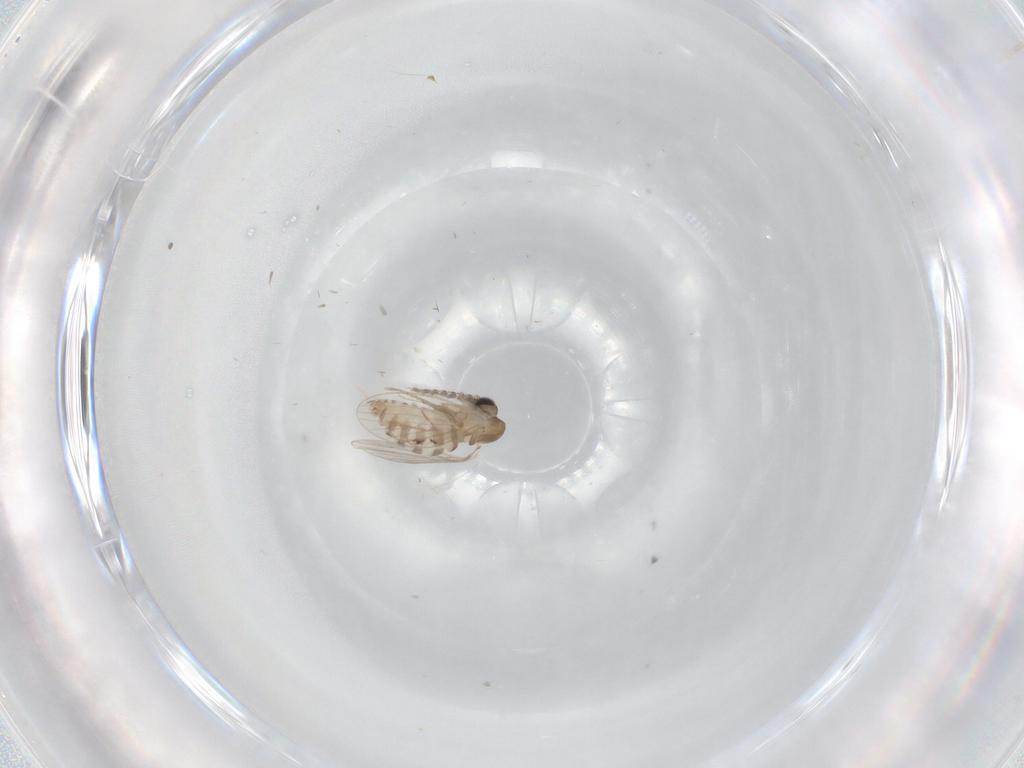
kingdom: Animalia
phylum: Arthropoda
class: Insecta
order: Diptera
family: Psychodidae
